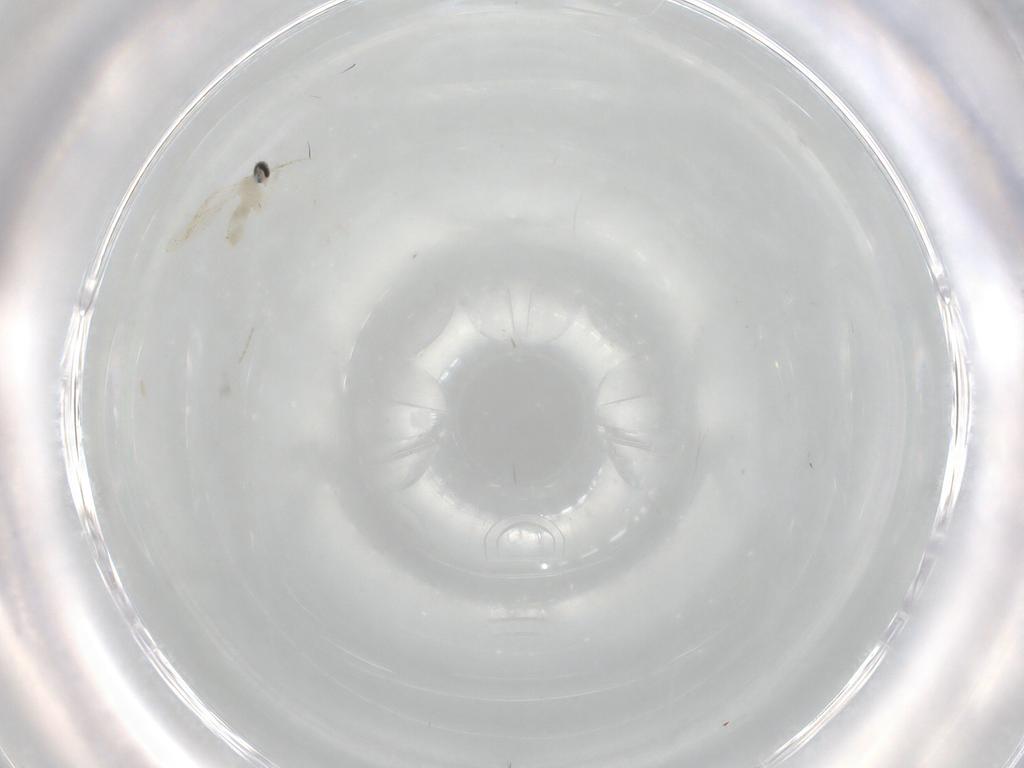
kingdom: Animalia
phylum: Arthropoda
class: Insecta
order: Diptera
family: Cecidomyiidae
